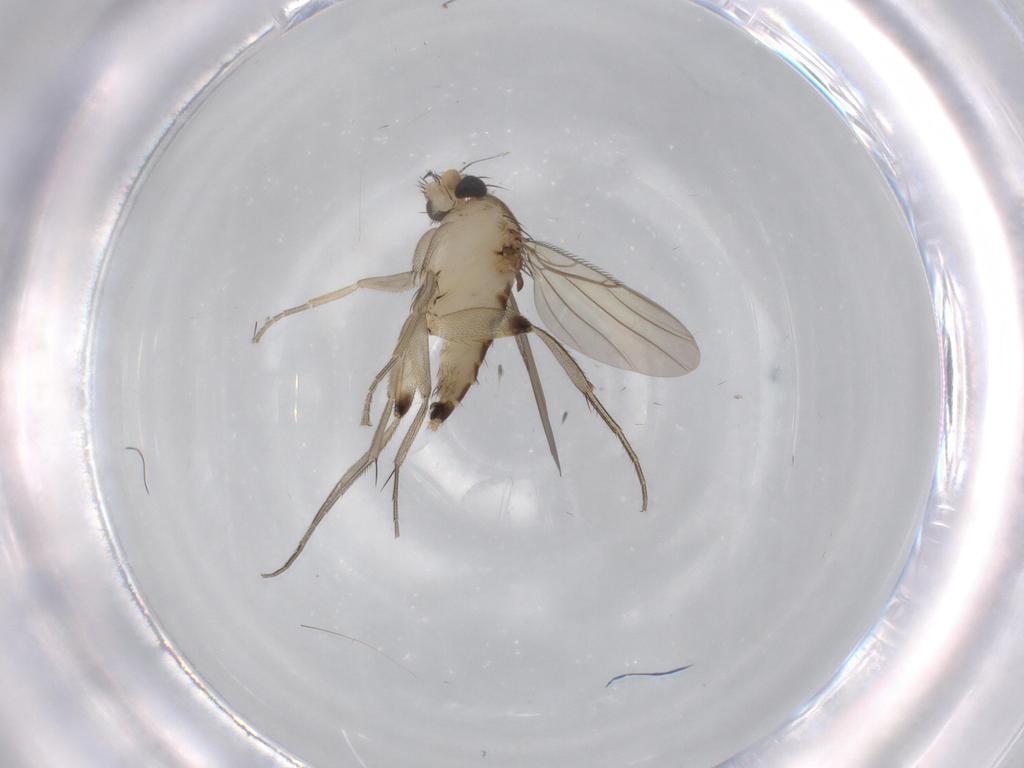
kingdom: Animalia
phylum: Arthropoda
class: Insecta
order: Diptera
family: Phoridae
